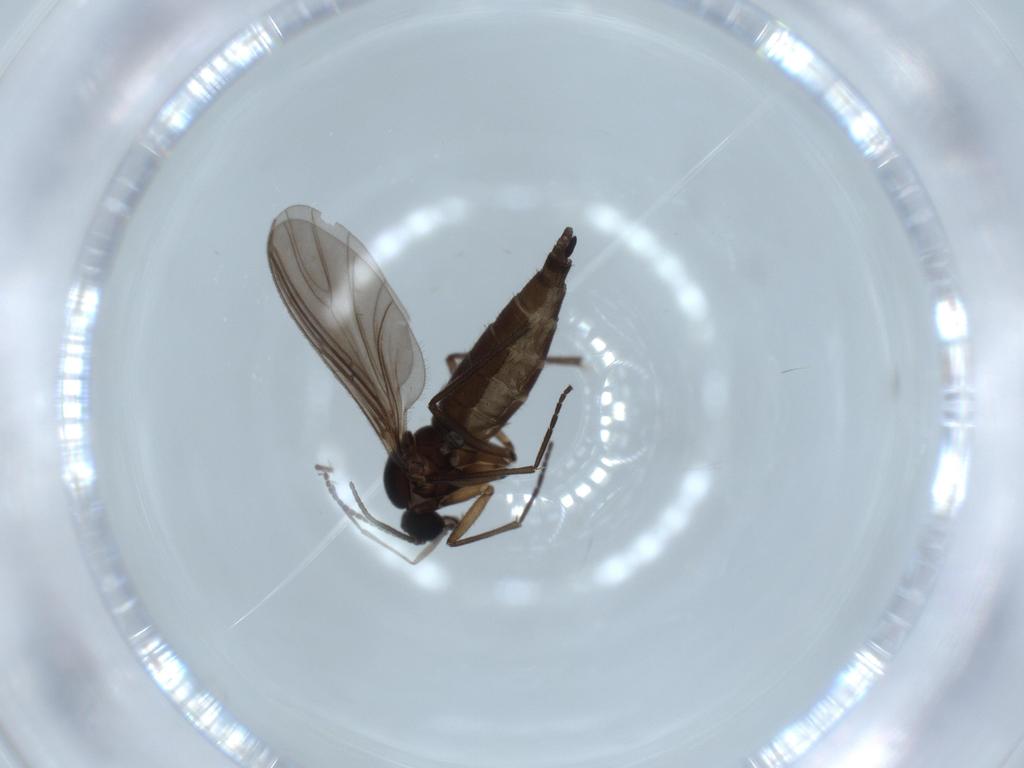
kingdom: Animalia
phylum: Arthropoda
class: Insecta
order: Diptera
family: Sciaridae
